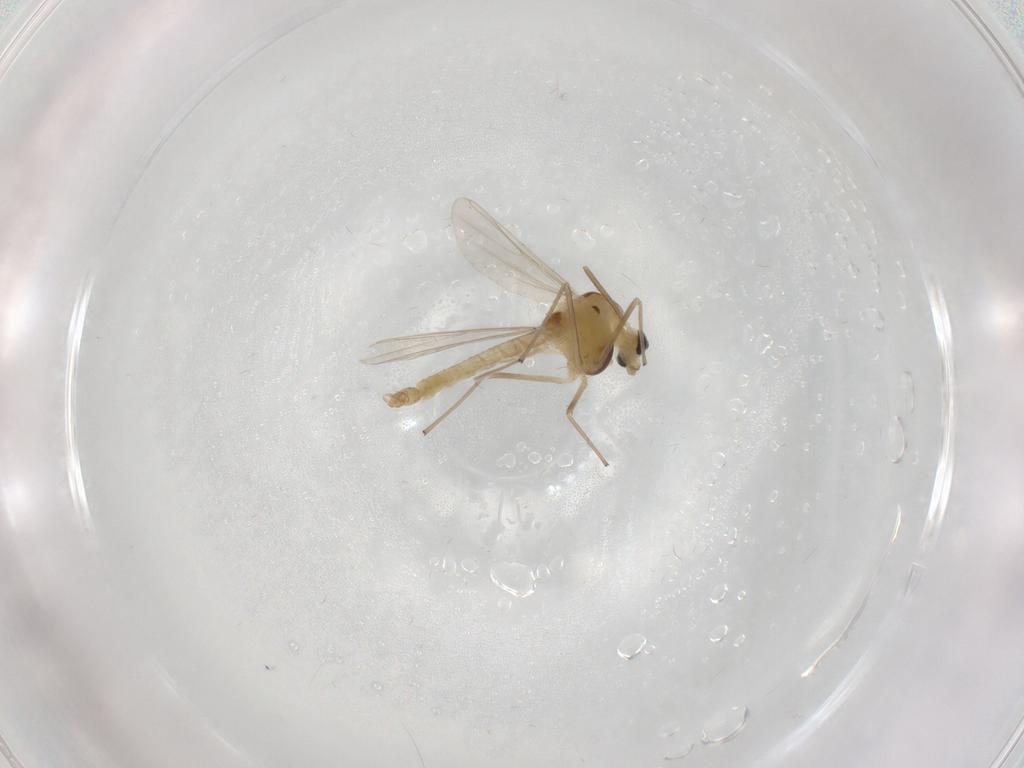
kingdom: Animalia
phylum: Arthropoda
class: Insecta
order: Diptera
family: Chironomidae
